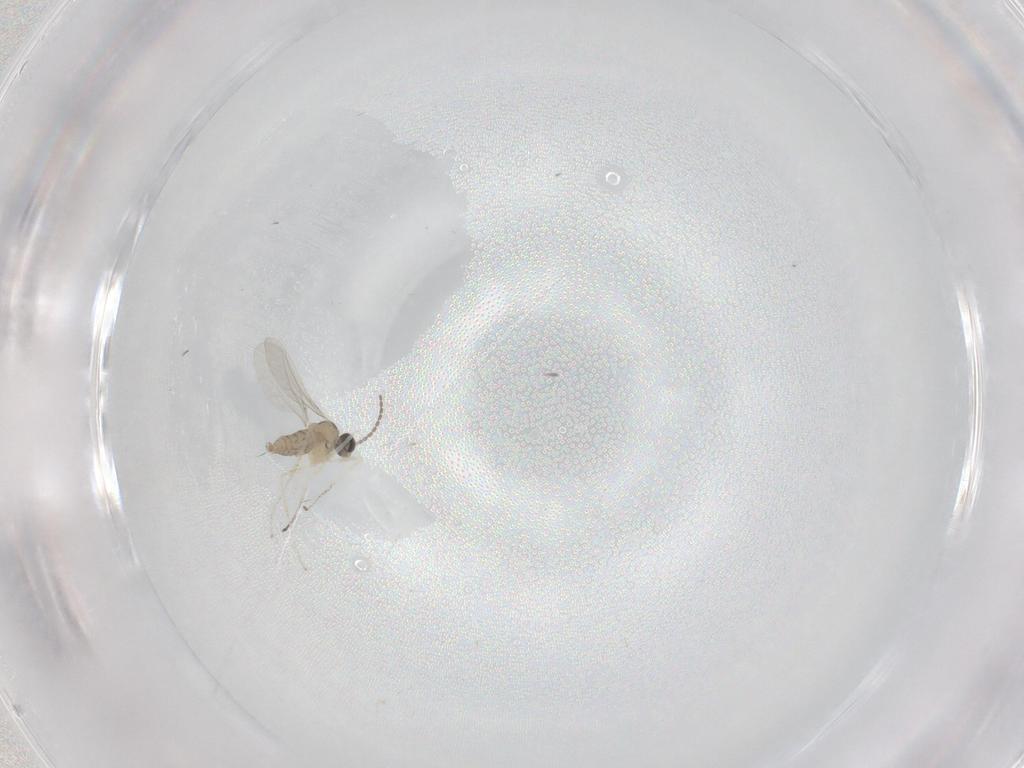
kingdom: Animalia
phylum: Arthropoda
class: Insecta
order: Diptera
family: Cecidomyiidae
